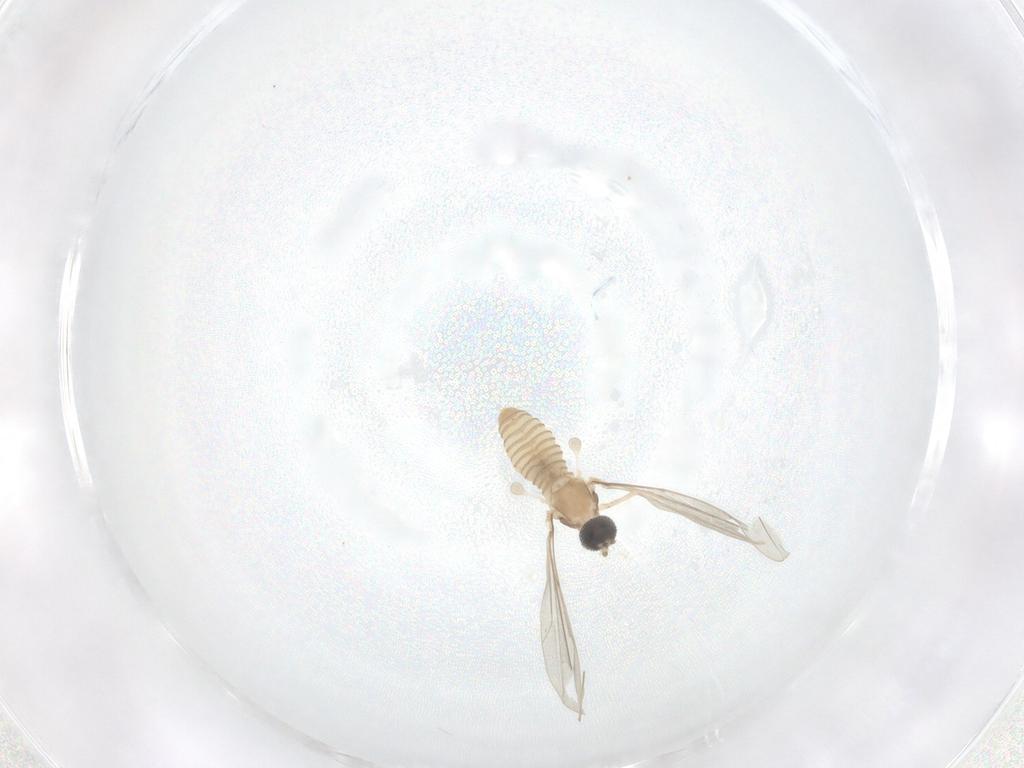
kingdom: Animalia
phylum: Arthropoda
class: Insecta
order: Diptera
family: Cecidomyiidae
